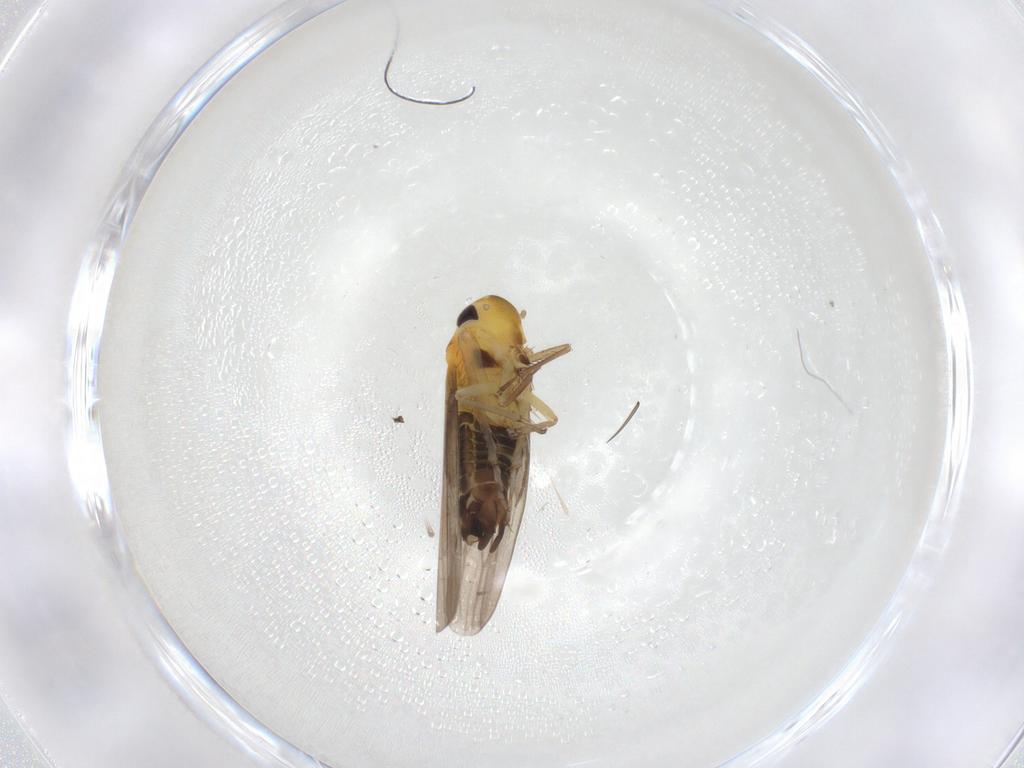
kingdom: Animalia
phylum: Arthropoda
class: Insecta
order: Hemiptera
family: Cicadellidae
